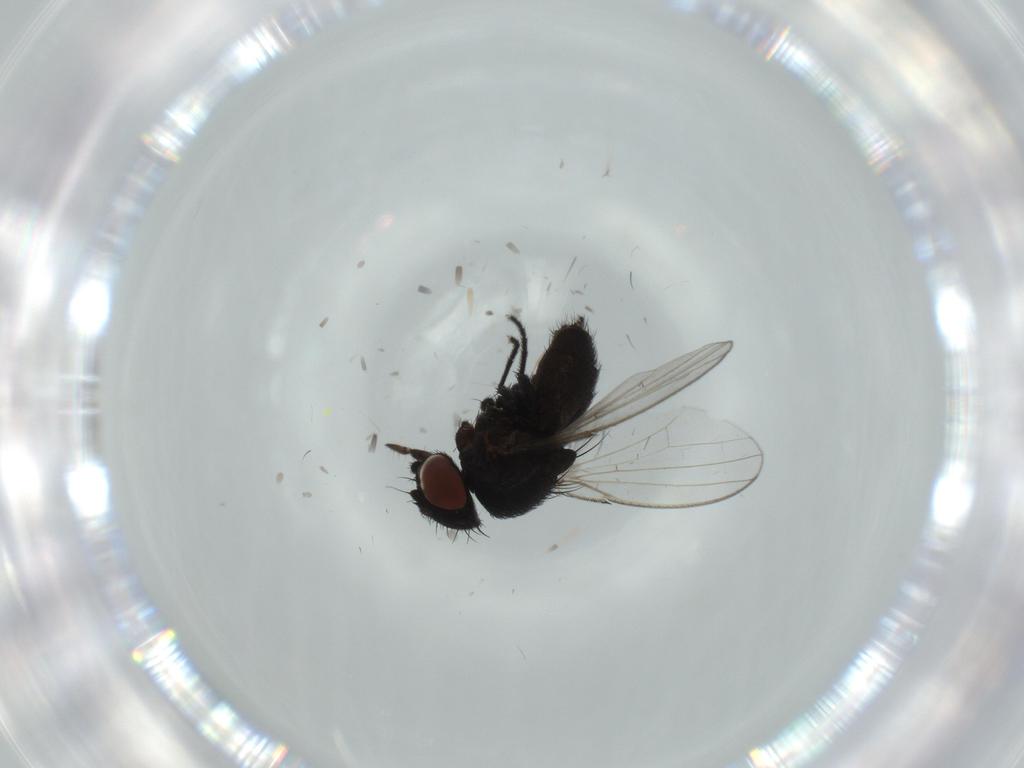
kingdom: Animalia
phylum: Arthropoda
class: Insecta
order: Diptera
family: Milichiidae
